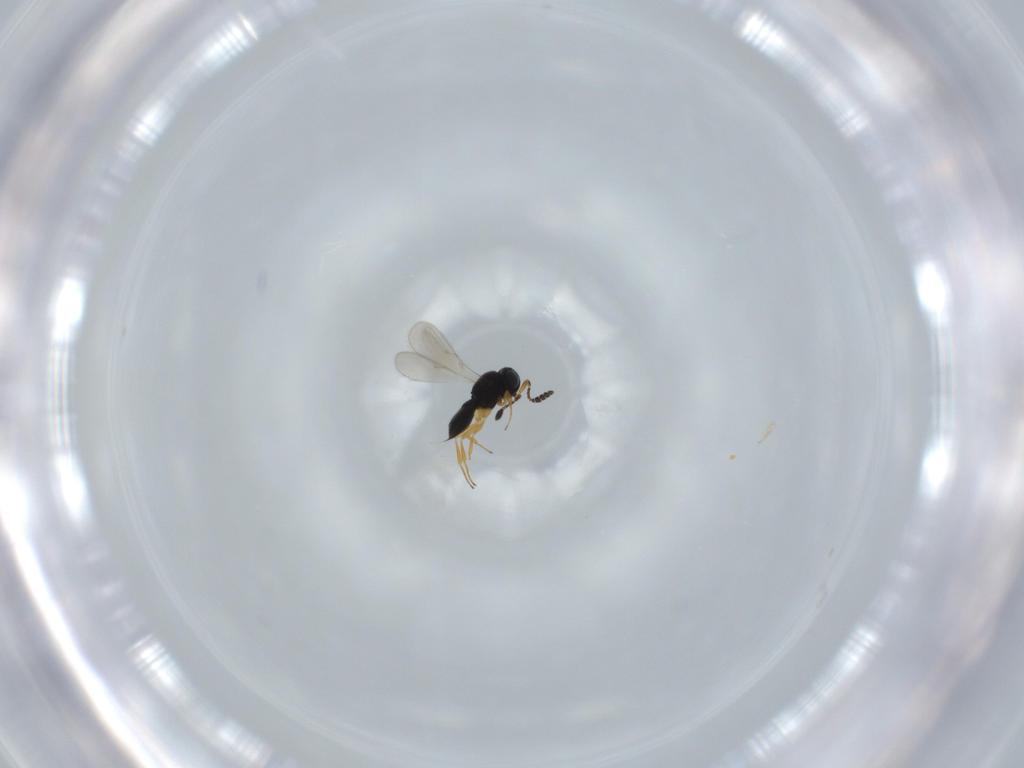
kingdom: Animalia
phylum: Arthropoda
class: Insecta
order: Hymenoptera
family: Scelionidae
